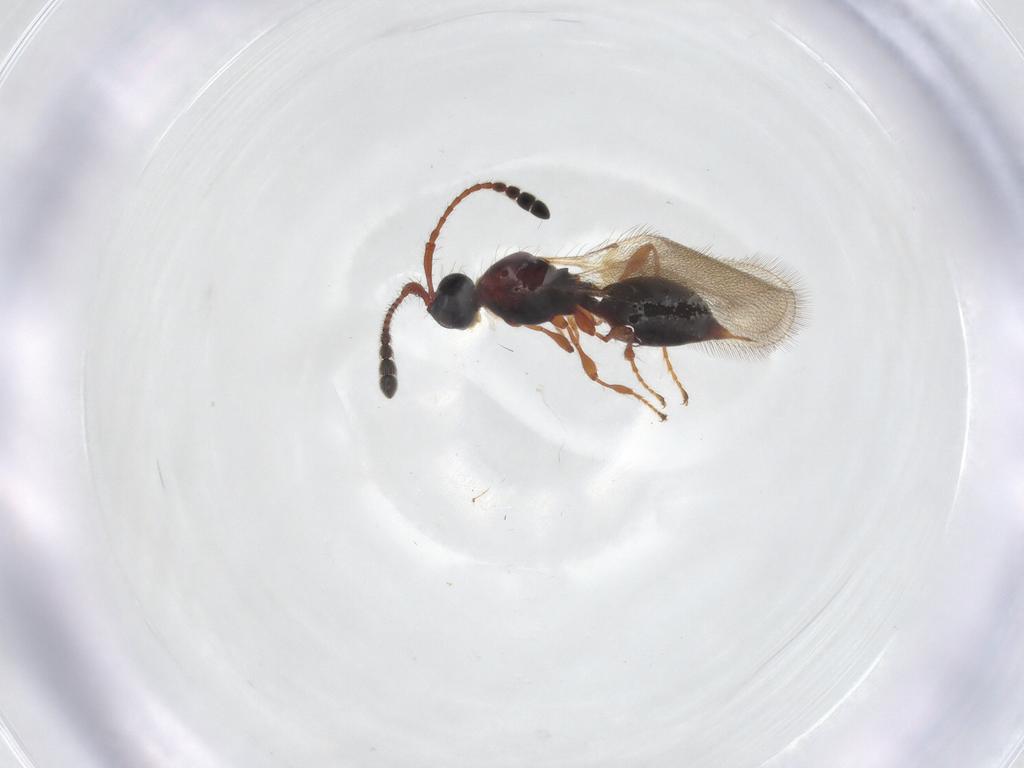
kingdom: Animalia
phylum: Arthropoda
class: Insecta
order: Hymenoptera
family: Diapriidae
